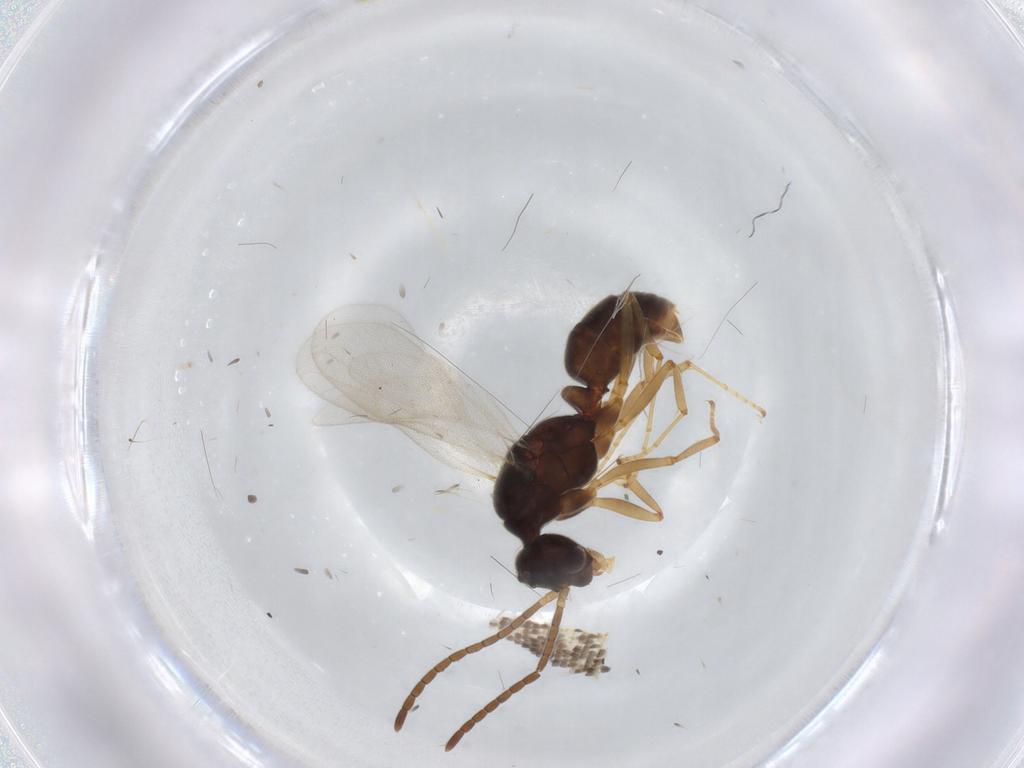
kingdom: Animalia
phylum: Arthropoda
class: Insecta
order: Hymenoptera
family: Formicidae
